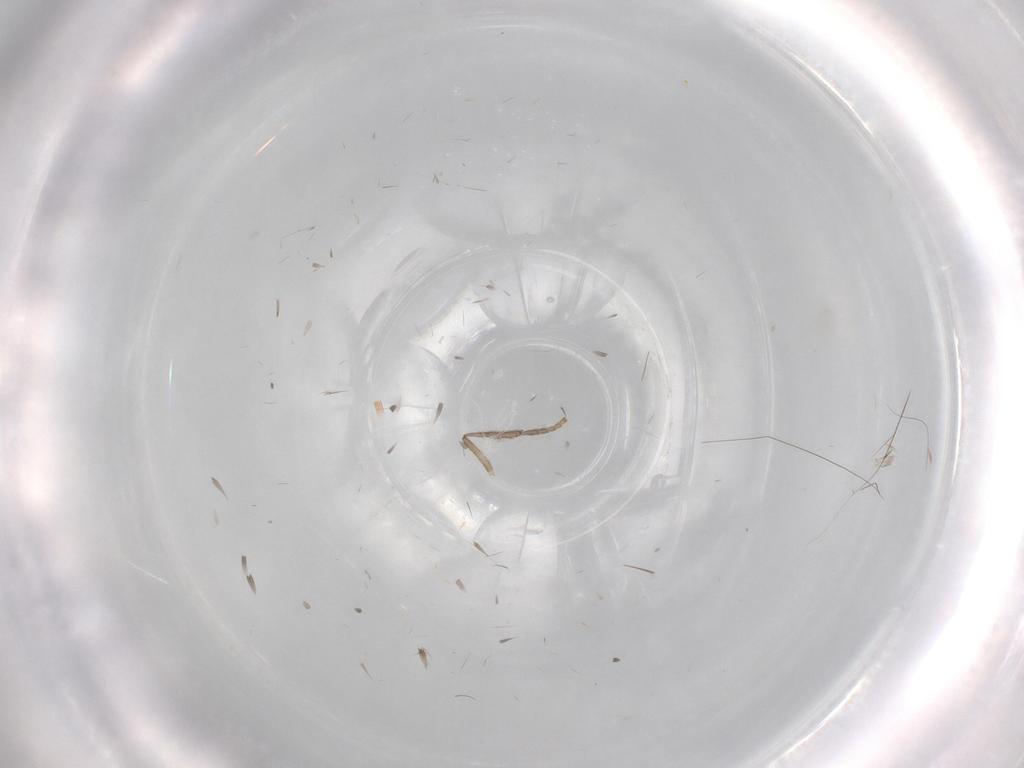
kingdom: Animalia
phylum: Arthropoda
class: Insecta
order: Diptera
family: Psychodidae
